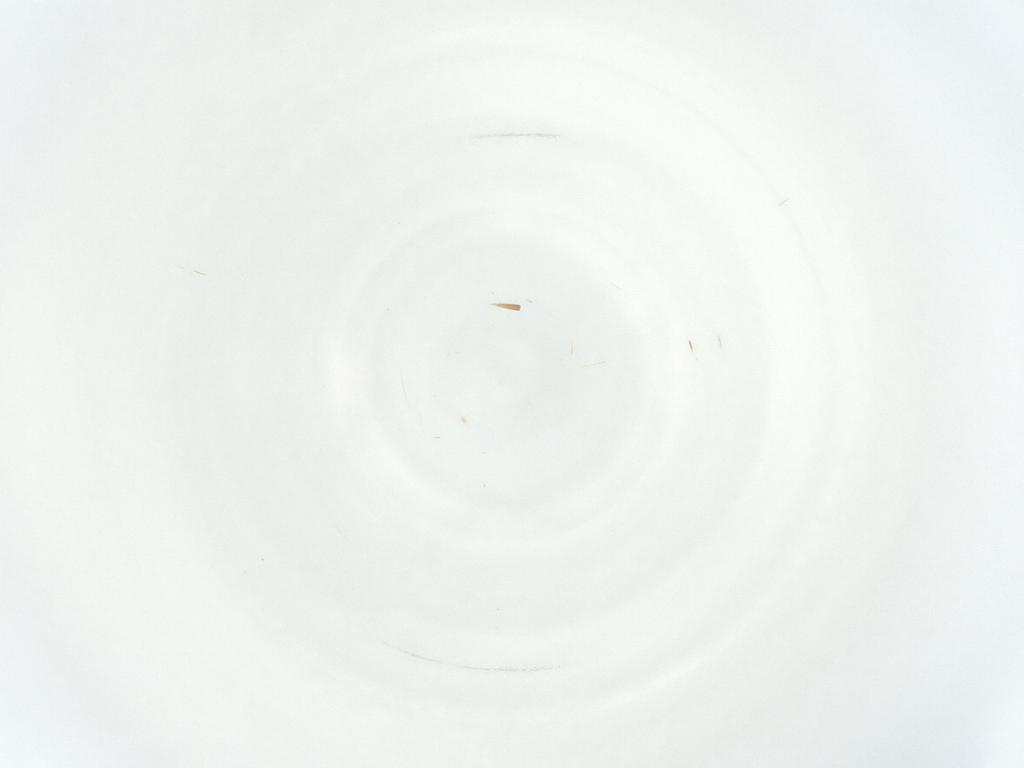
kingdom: Animalia
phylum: Arthropoda
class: Insecta
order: Hymenoptera
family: Mymaridae
